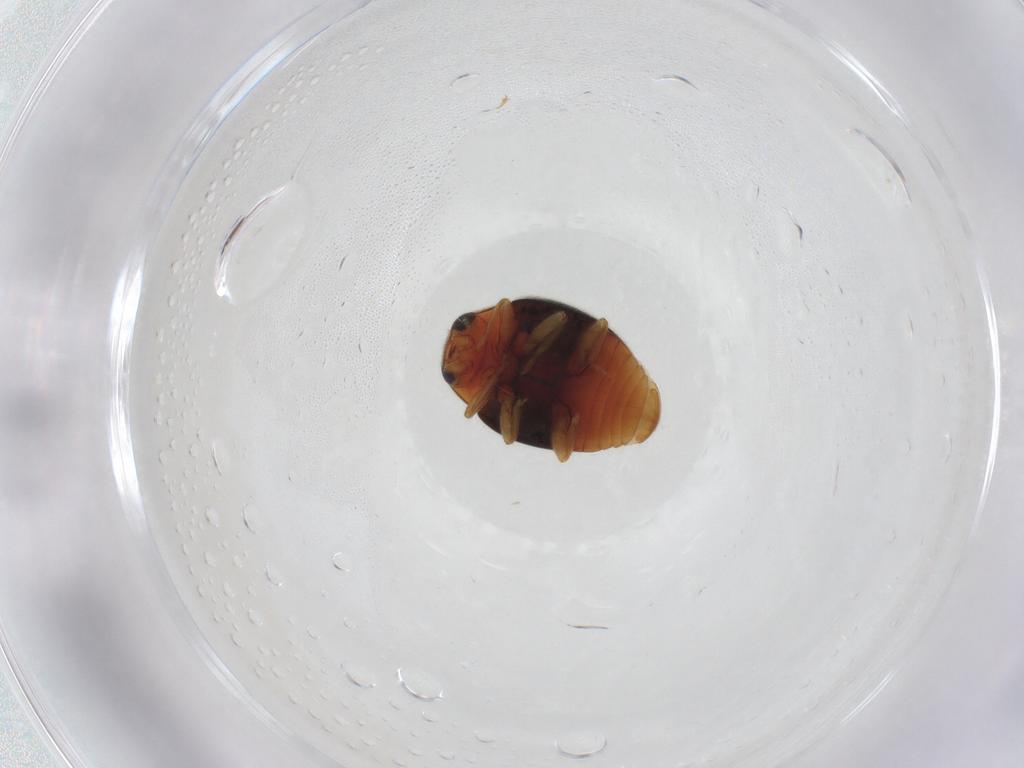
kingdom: Animalia
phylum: Arthropoda
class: Insecta
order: Coleoptera
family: Coccinellidae
